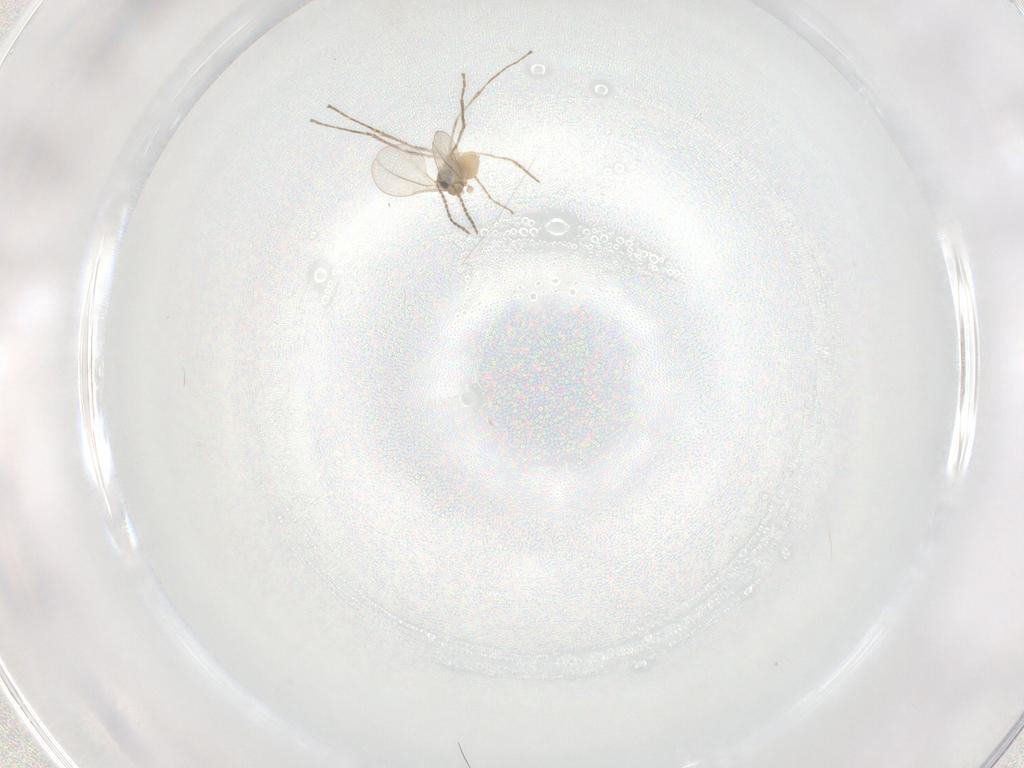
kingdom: Animalia
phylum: Arthropoda
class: Insecta
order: Diptera
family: Cecidomyiidae
